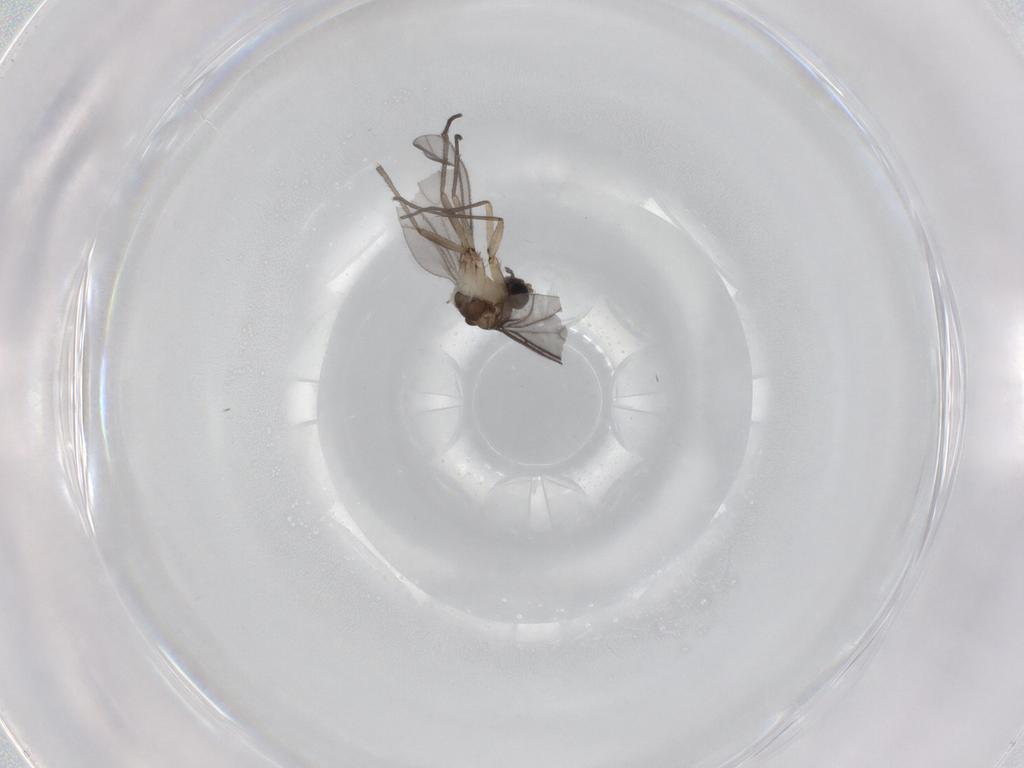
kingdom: Animalia
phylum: Arthropoda
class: Insecta
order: Diptera
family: Sciaridae
